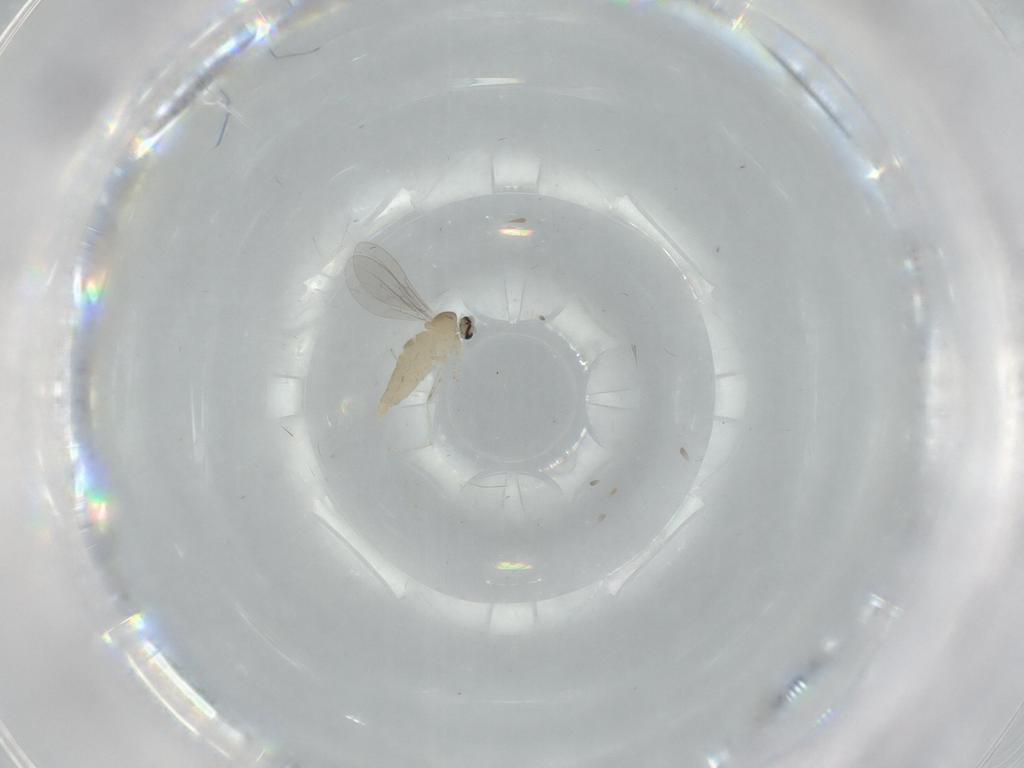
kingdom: Animalia
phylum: Arthropoda
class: Insecta
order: Diptera
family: Cecidomyiidae
